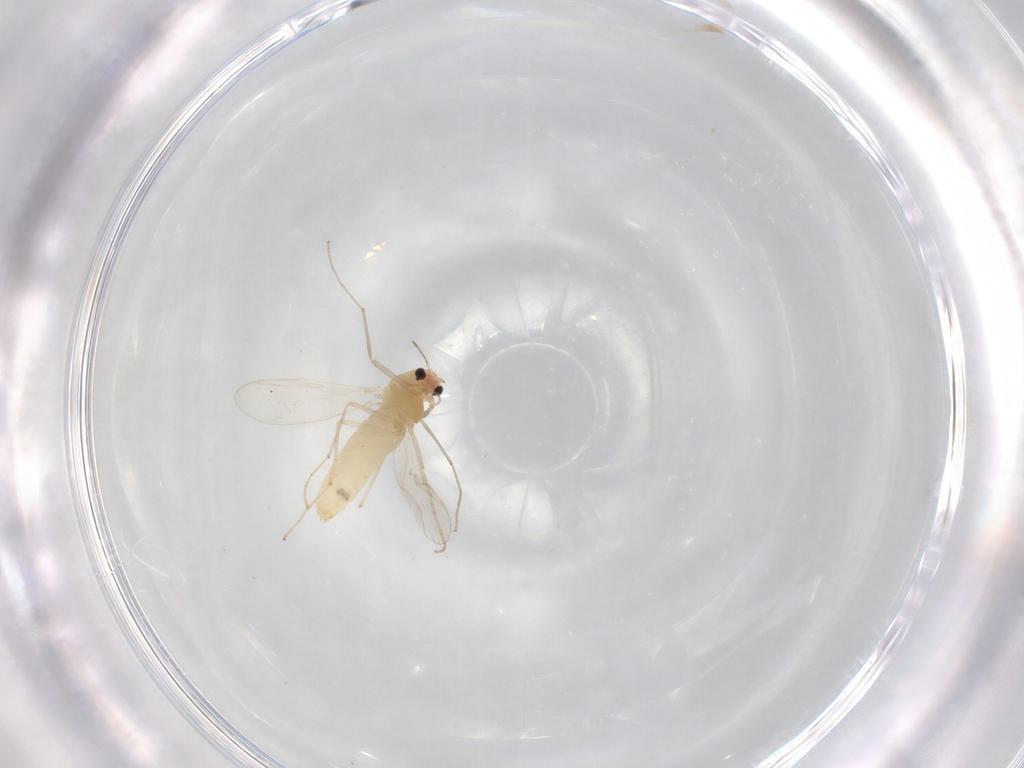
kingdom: Animalia
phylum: Arthropoda
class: Insecta
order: Diptera
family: Chironomidae
